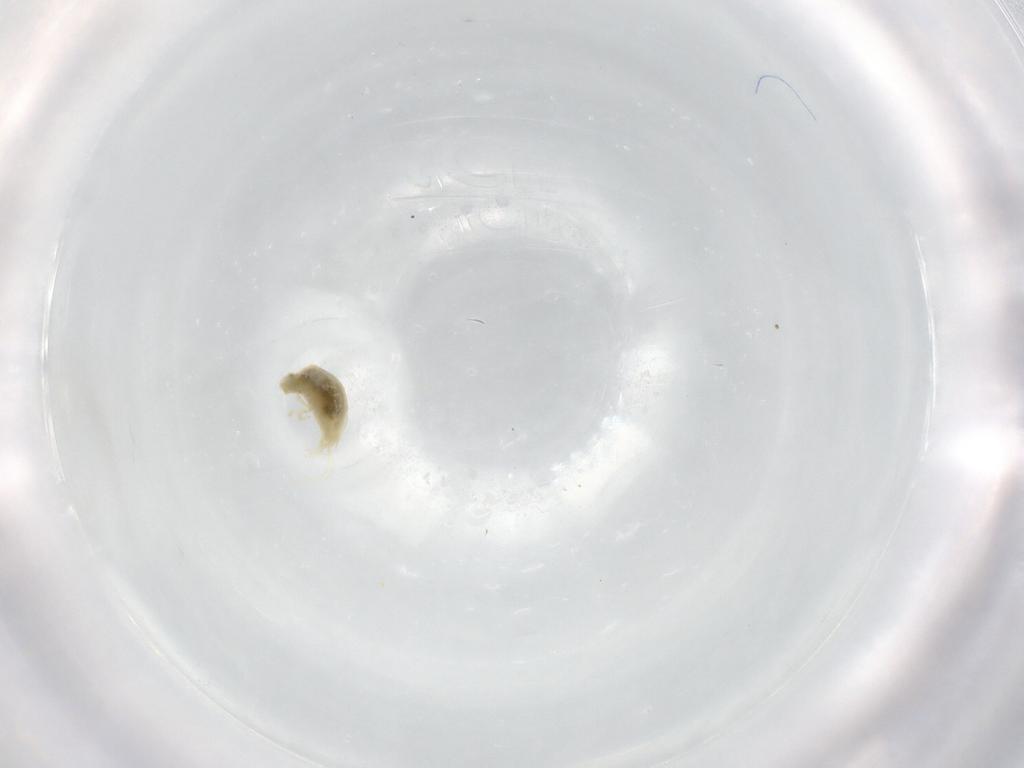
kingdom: Animalia
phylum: Arthropoda
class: Arachnida
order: Trombidiformes
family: Tetranychidae
